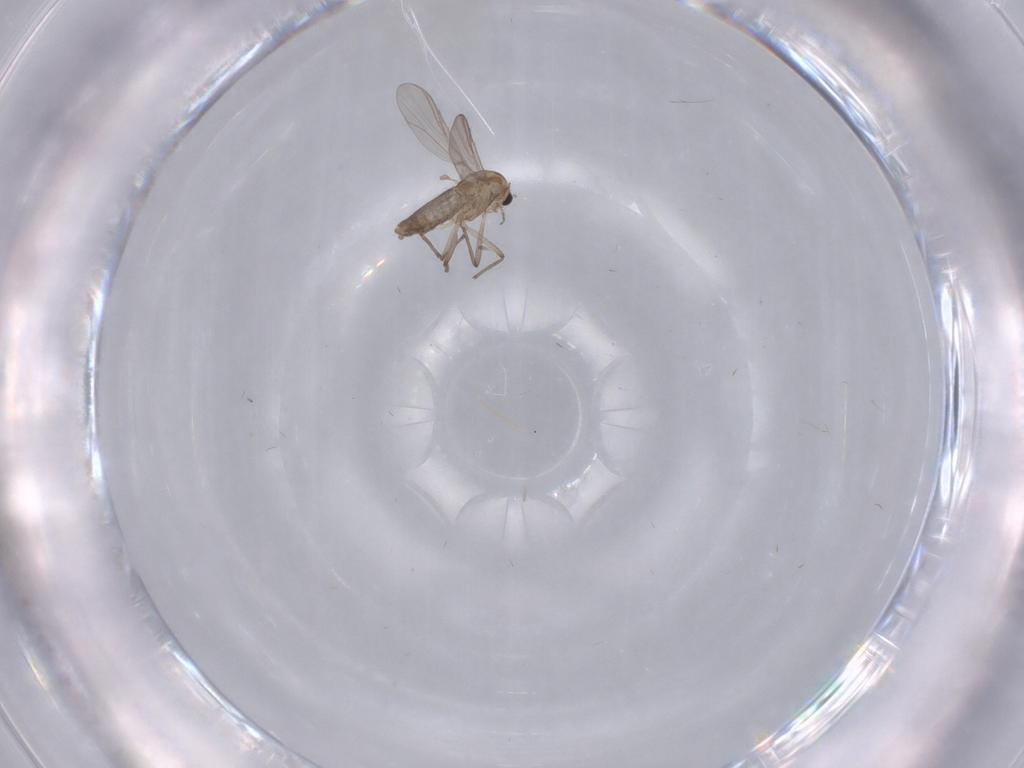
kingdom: Animalia
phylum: Arthropoda
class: Insecta
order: Diptera
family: Chironomidae
